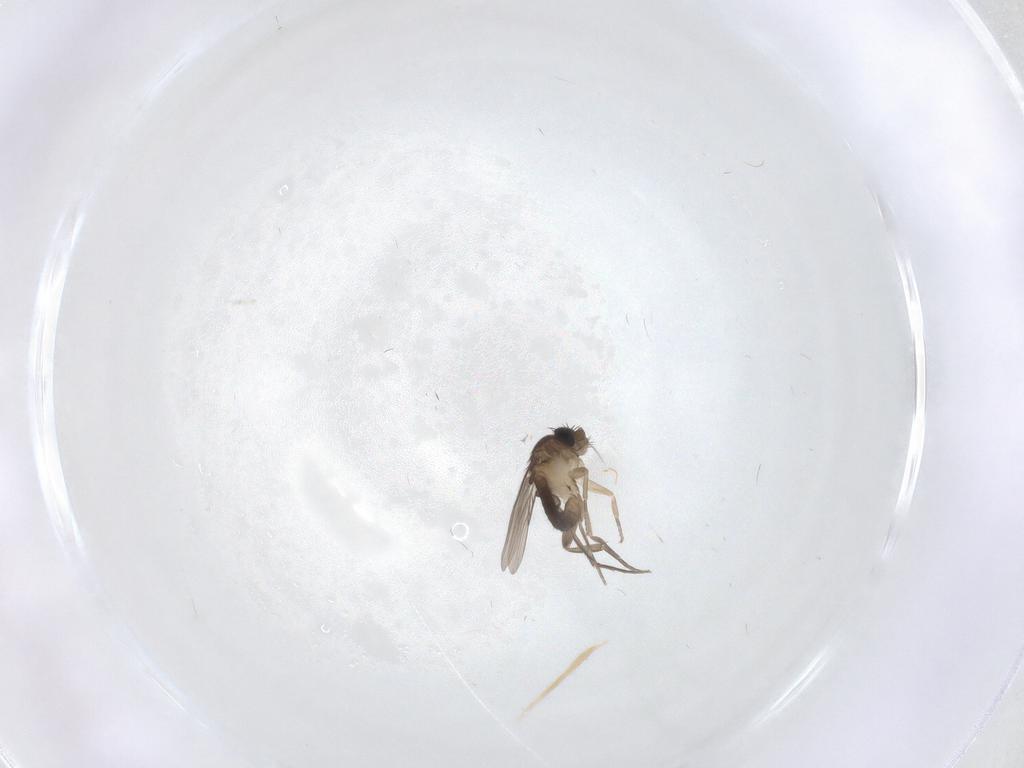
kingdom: Animalia
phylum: Arthropoda
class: Insecta
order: Diptera
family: Phoridae
